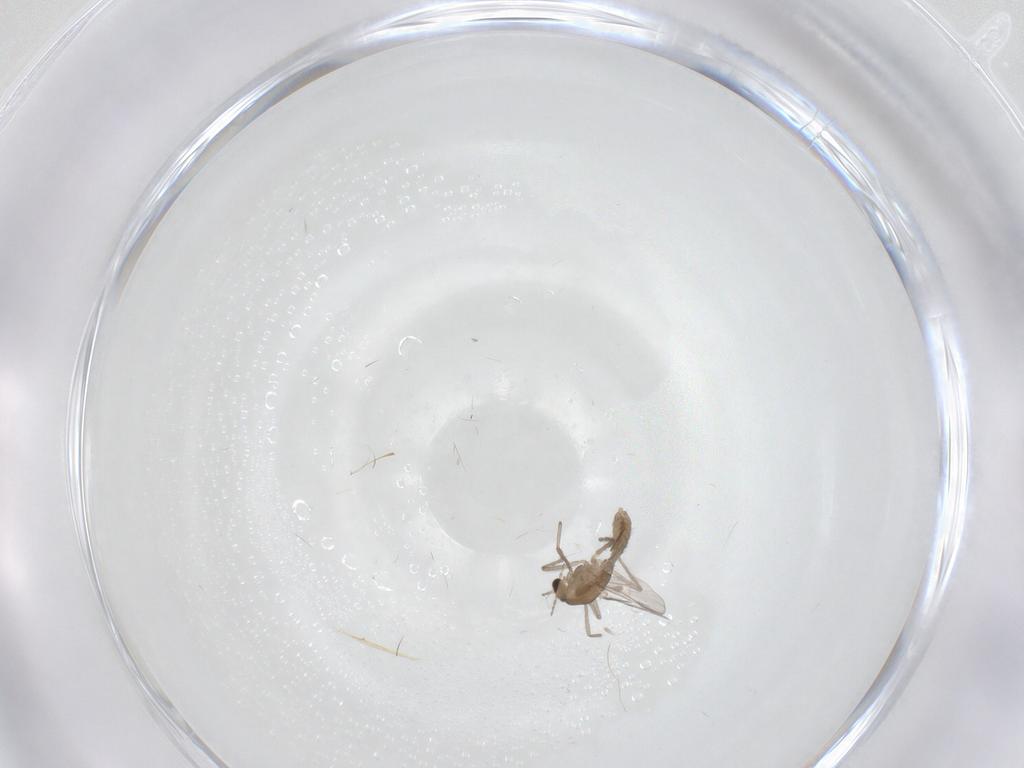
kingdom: Animalia
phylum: Arthropoda
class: Insecta
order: Diptera
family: Chironomidae
